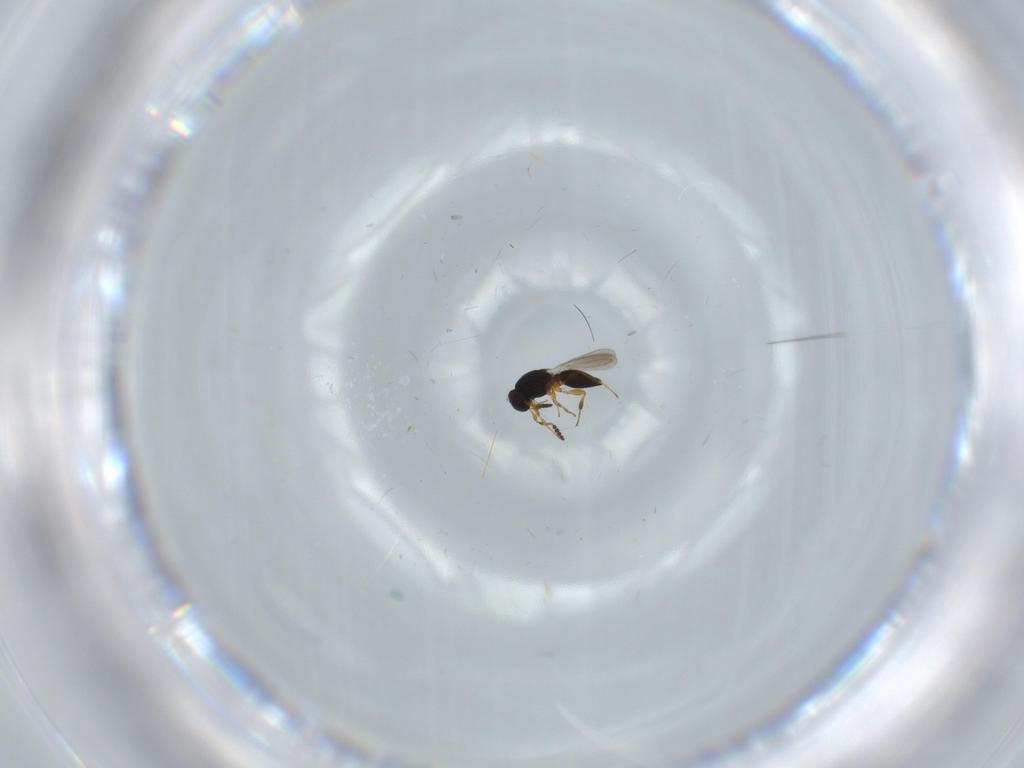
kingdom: Animalia
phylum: Arthropoda
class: Insecta
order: Hymenoptera
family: Platygastridae
